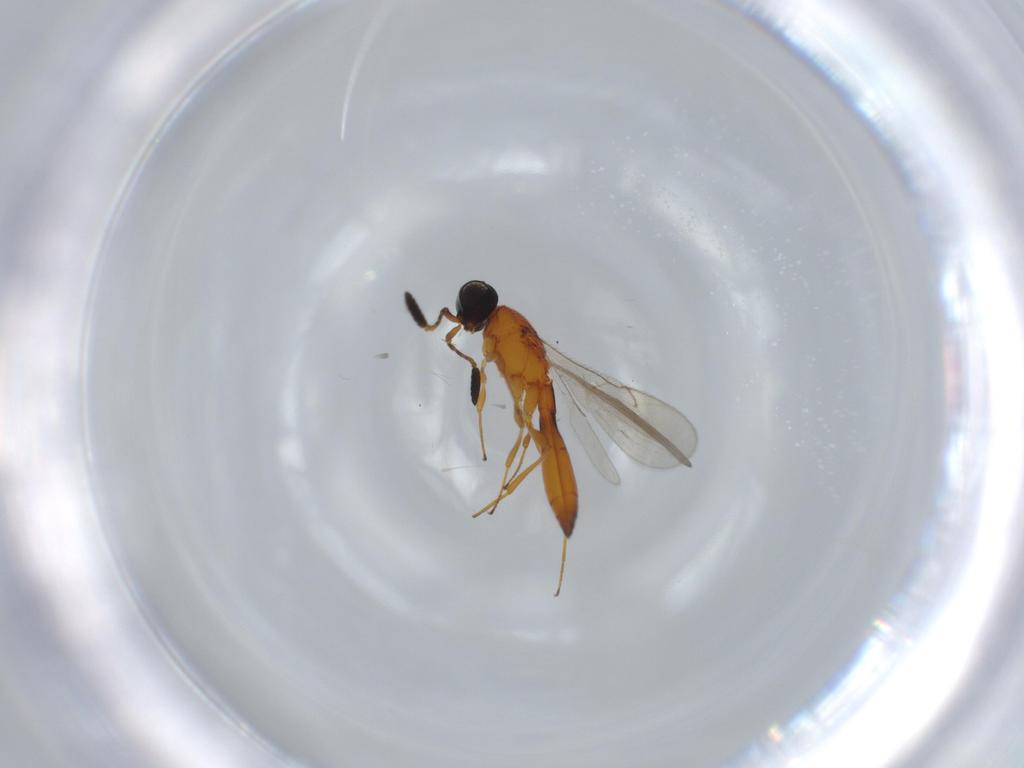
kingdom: Animalia
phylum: Arthropoda
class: Insecta
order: Hymenoptera
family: Scelionidae
